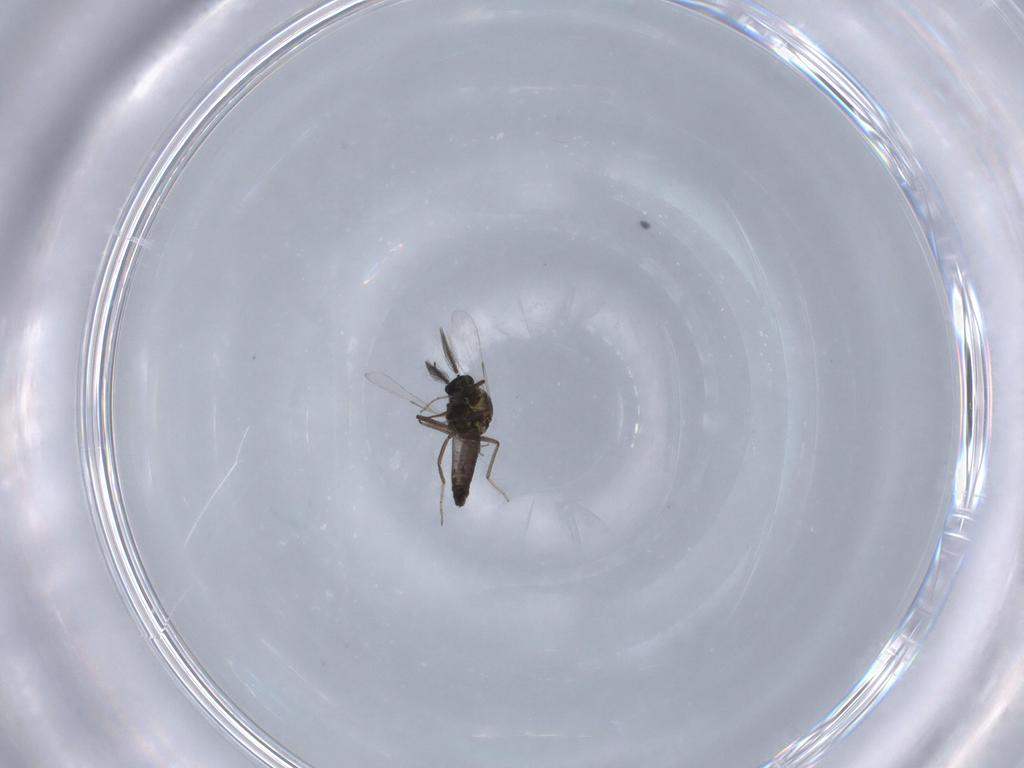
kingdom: Animalia
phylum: Arthropoda
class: Insecta
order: Diptera
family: Ceratopogonidae
